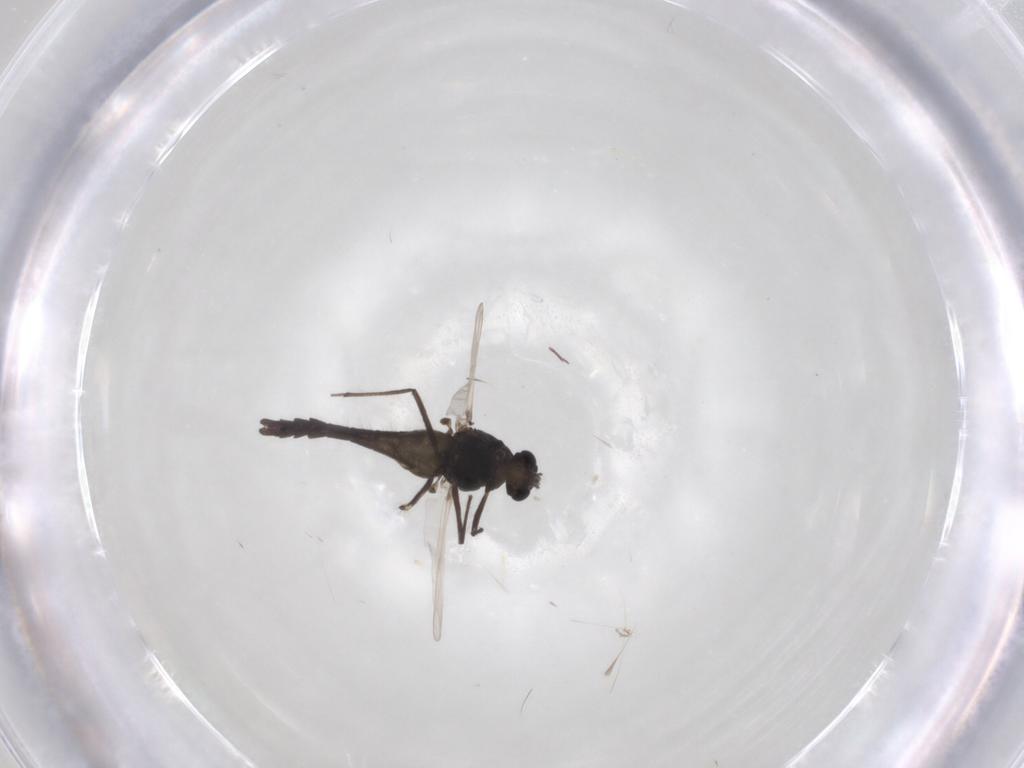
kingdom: Animalia
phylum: Arthropoda
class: Insecta
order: Diptera
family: Chironomidae
